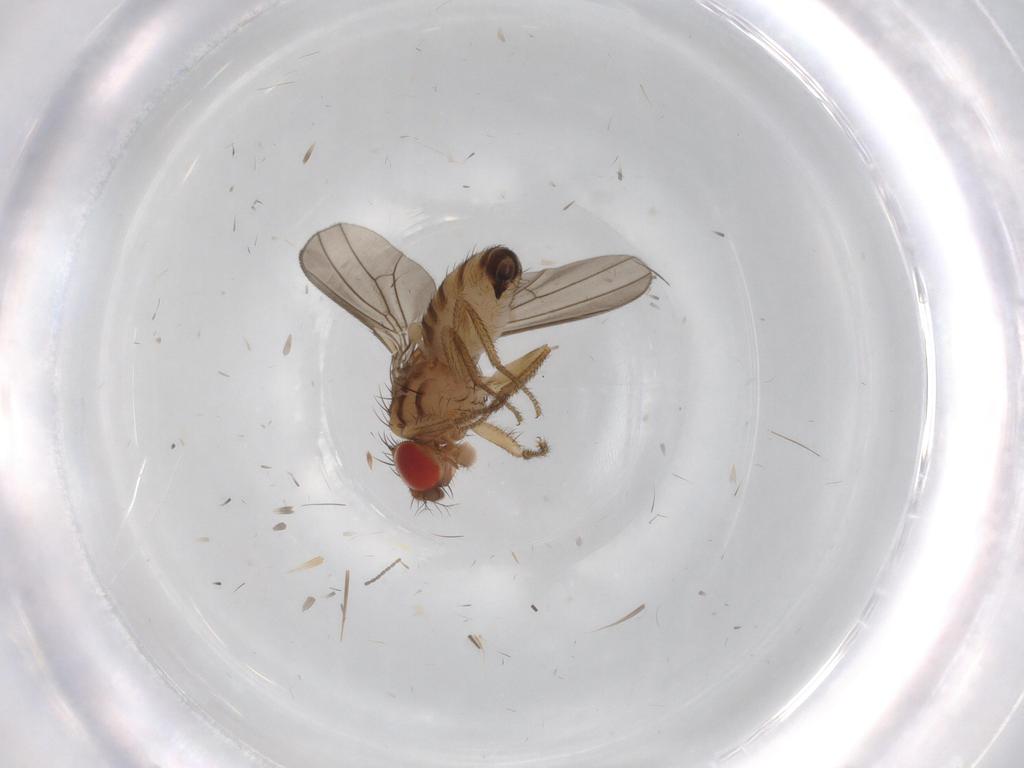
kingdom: Animalia
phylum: Arthropoda
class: Insecta
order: Diptera
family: Drosophilidae
